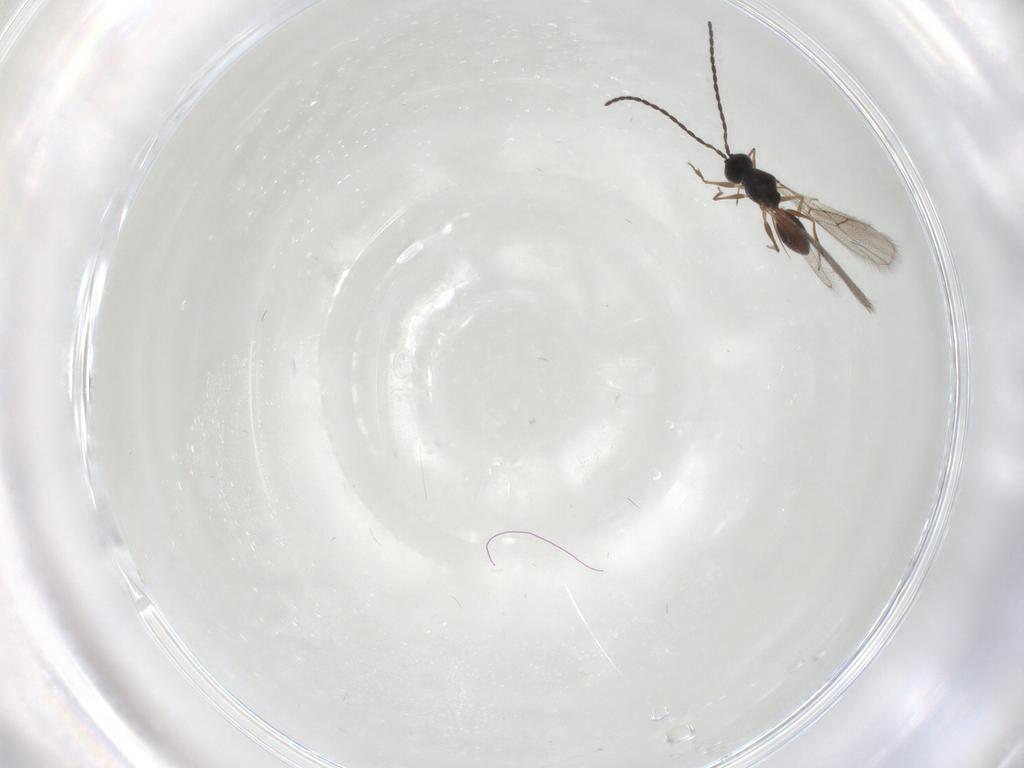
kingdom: Animalia
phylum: Arthropoda
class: Insecta
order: Hymenoptera
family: Figitidae
